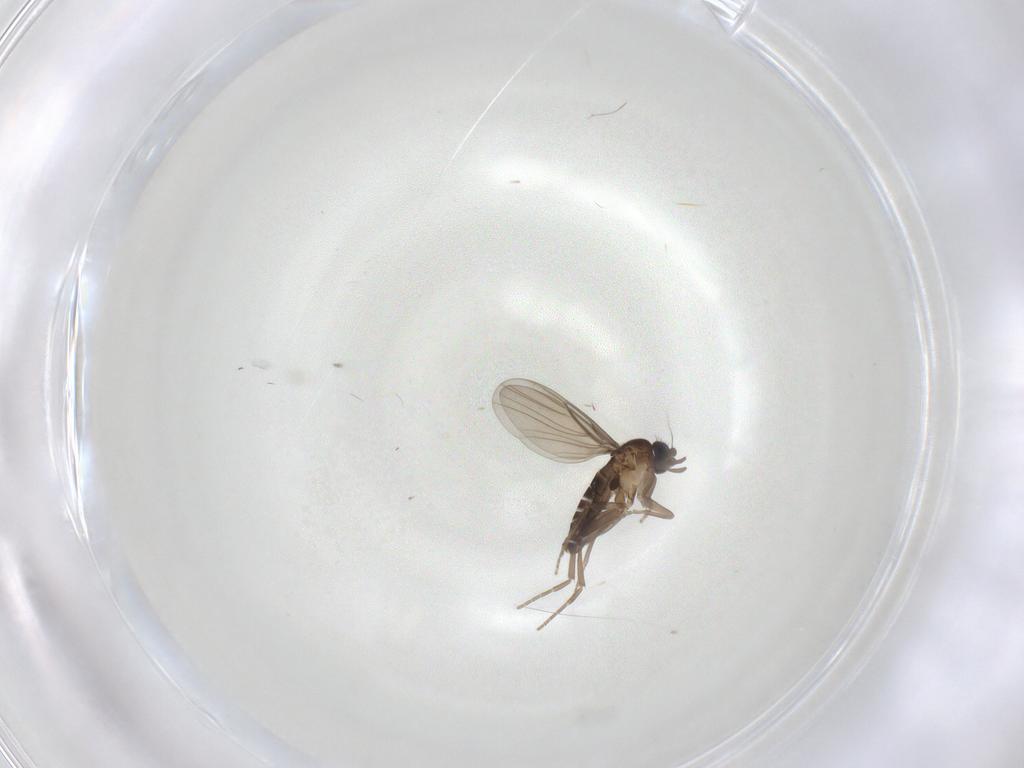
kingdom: Animalia
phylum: Arthropoda
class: Insecta
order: Diptera
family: Phoridae
